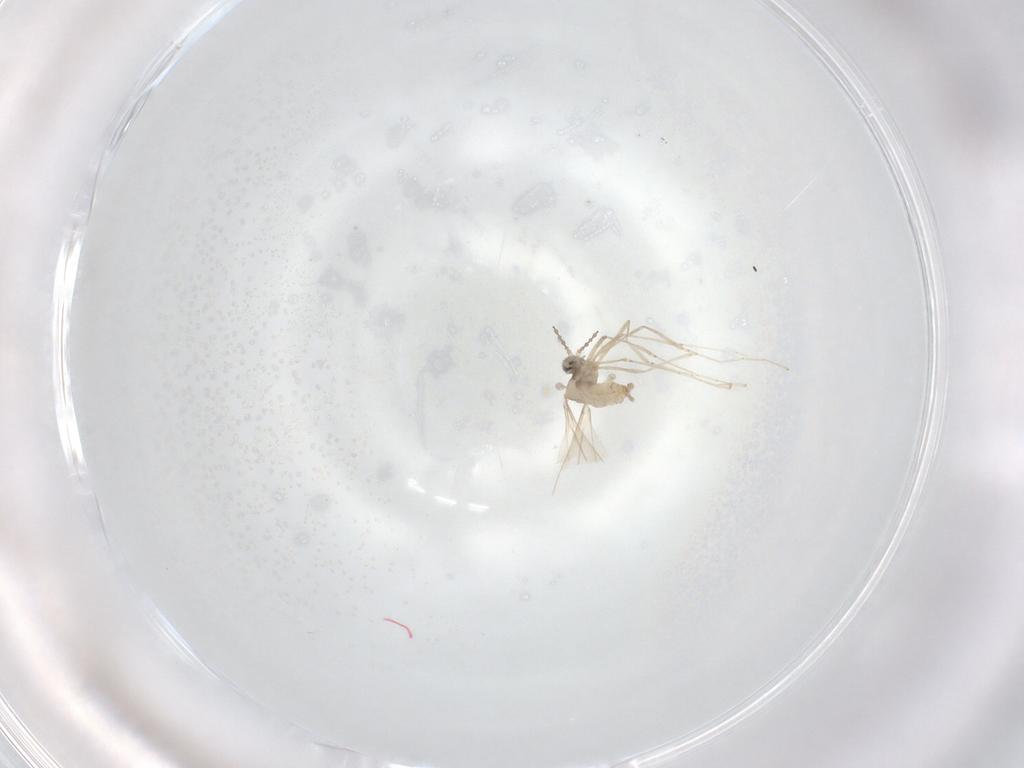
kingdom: Animalia
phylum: Arthropoda
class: Insecta
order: Diptera
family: Cecidomyiidae
